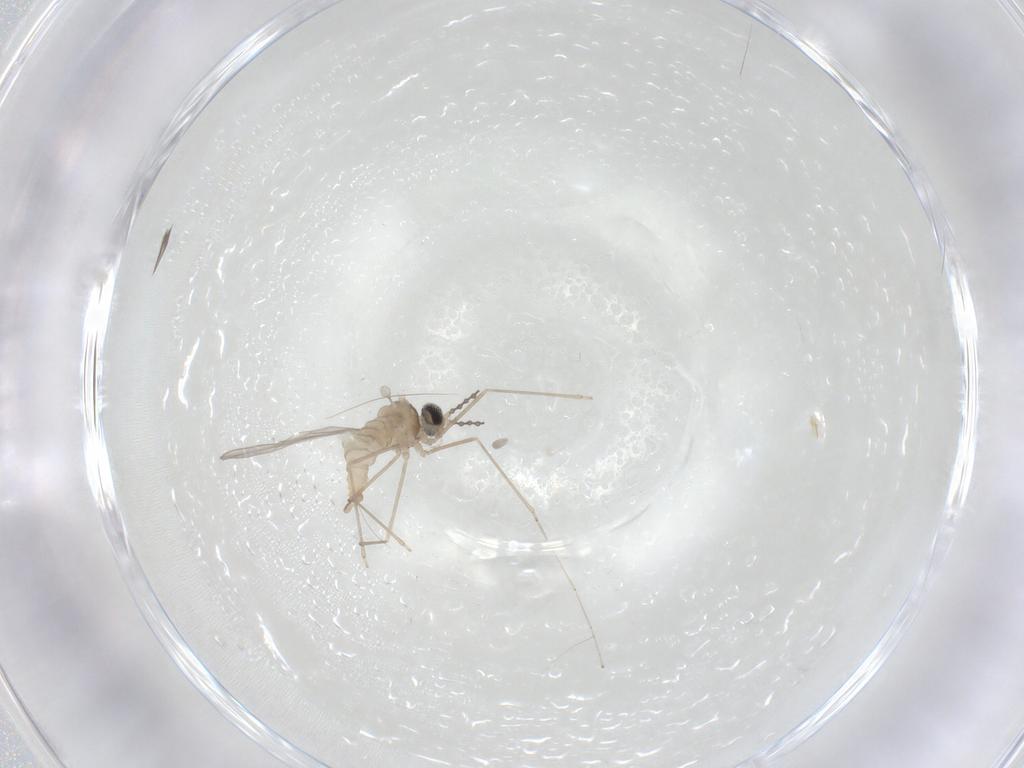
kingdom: Animalia
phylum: Arthropoda
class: Insecta
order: Diptera
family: Cecidomyiidae
